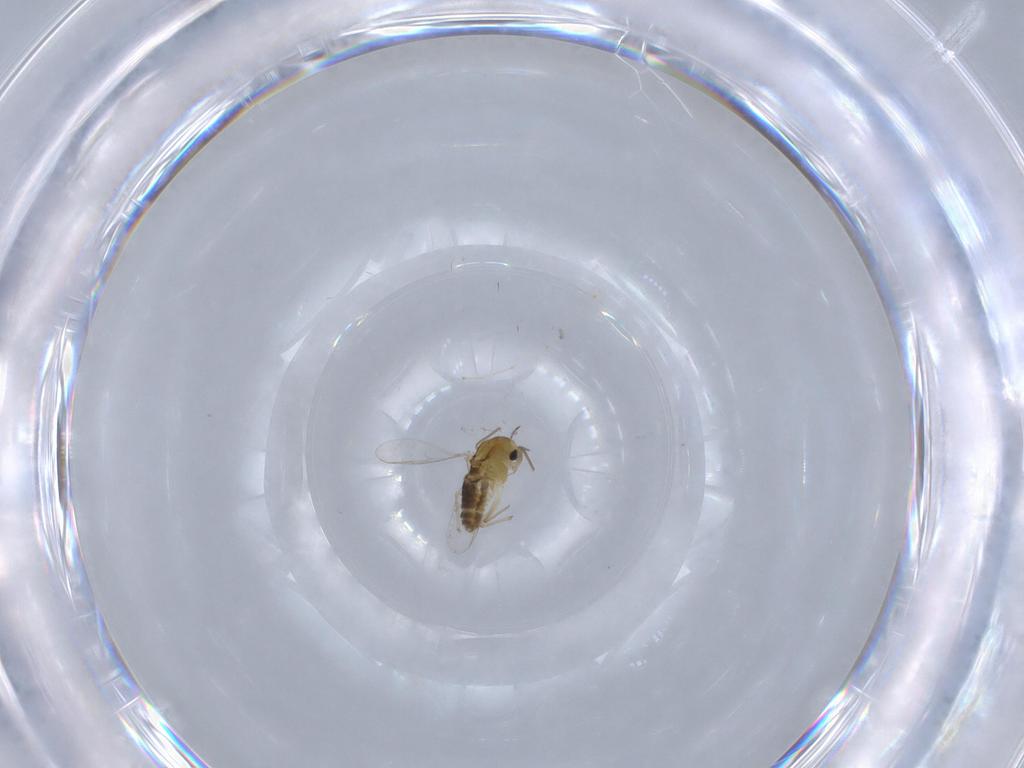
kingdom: Animalia
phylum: Arthropoda
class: Insecta
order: Diptera
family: Chironomidae
